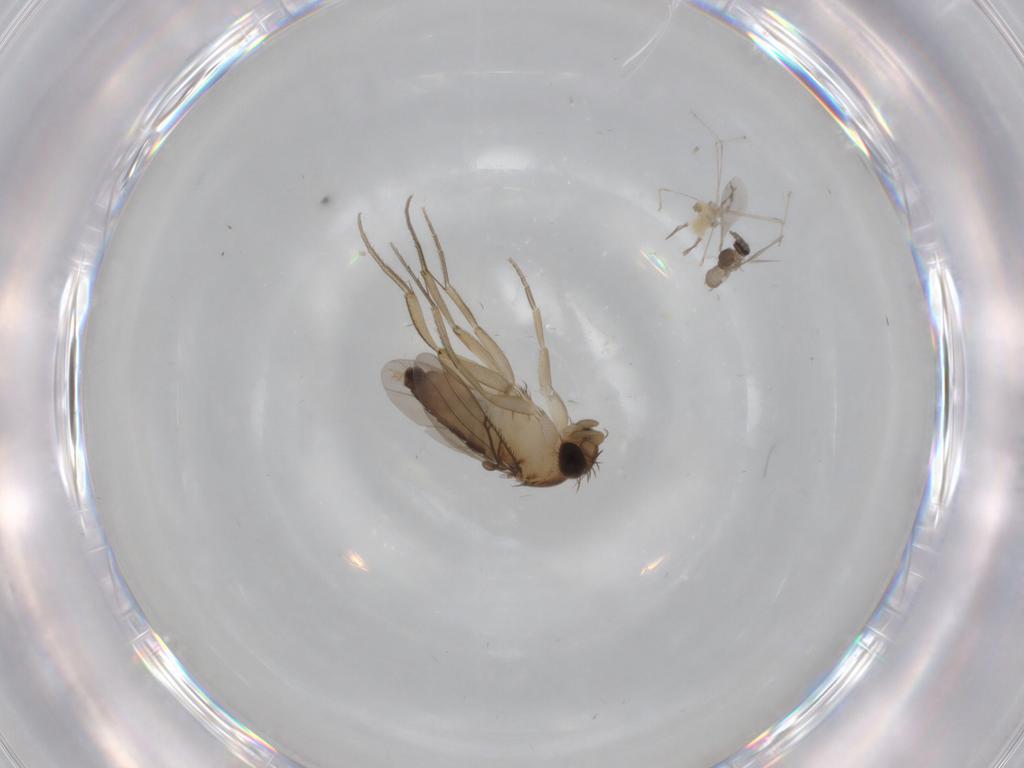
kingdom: Animalia
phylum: Arthropoda
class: Insecta
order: Diptera
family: Phoridae
